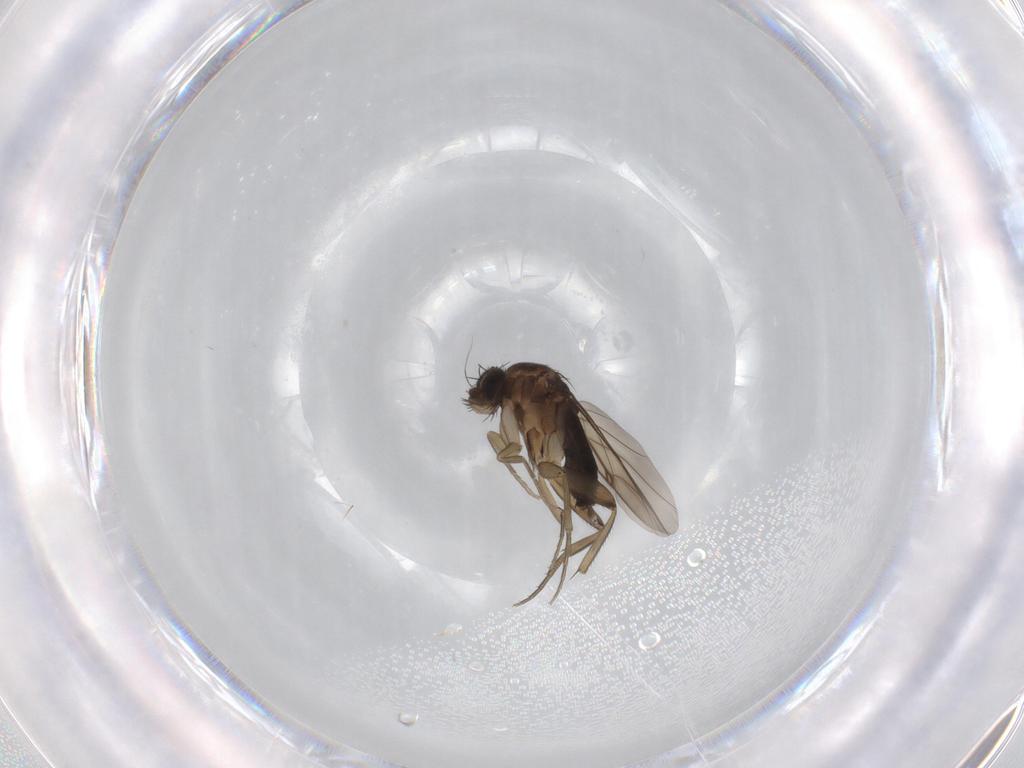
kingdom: Animalia
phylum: Arthropoda
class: Insecta
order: Diptera
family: Phoridae
